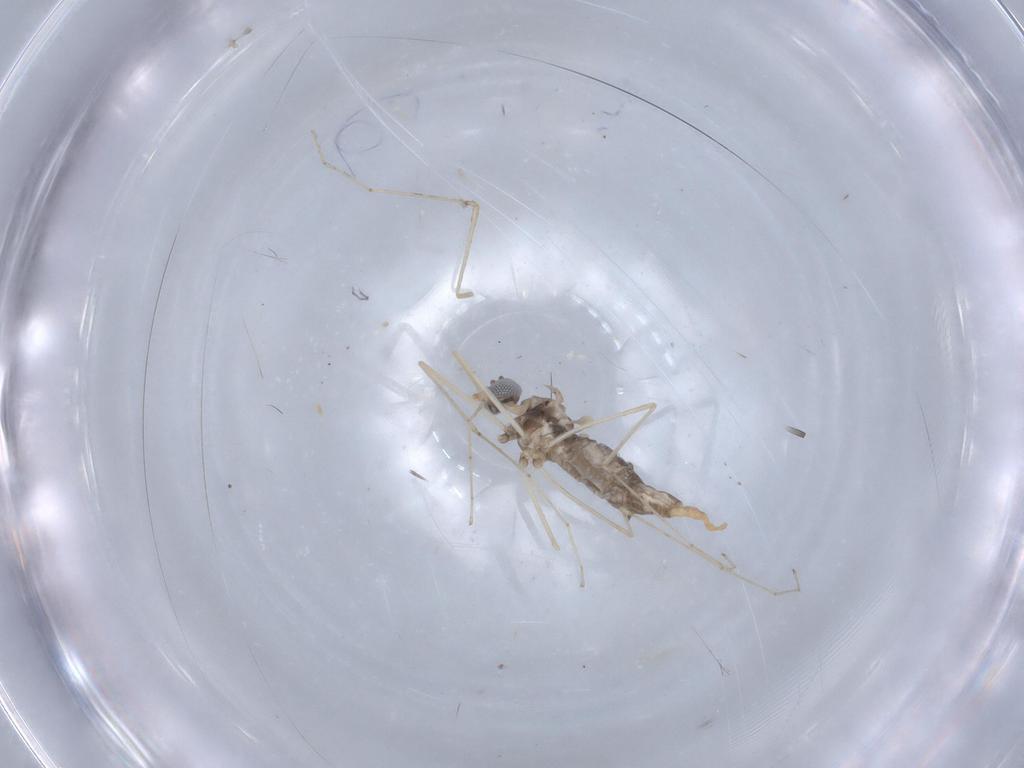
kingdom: Animalia
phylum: Arthropoda
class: Insecta
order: Diptera
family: Cecidomyiidae
